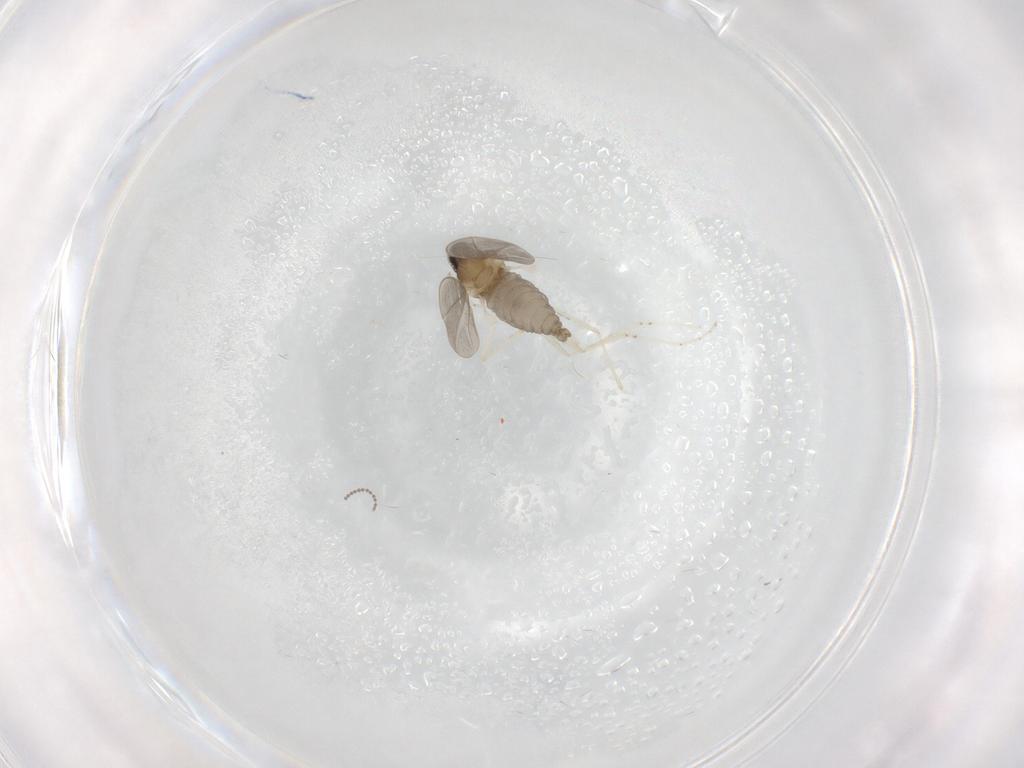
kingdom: Animalia
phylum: Arthropoda
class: Insecta
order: Diptera
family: Cecidomyiidae
